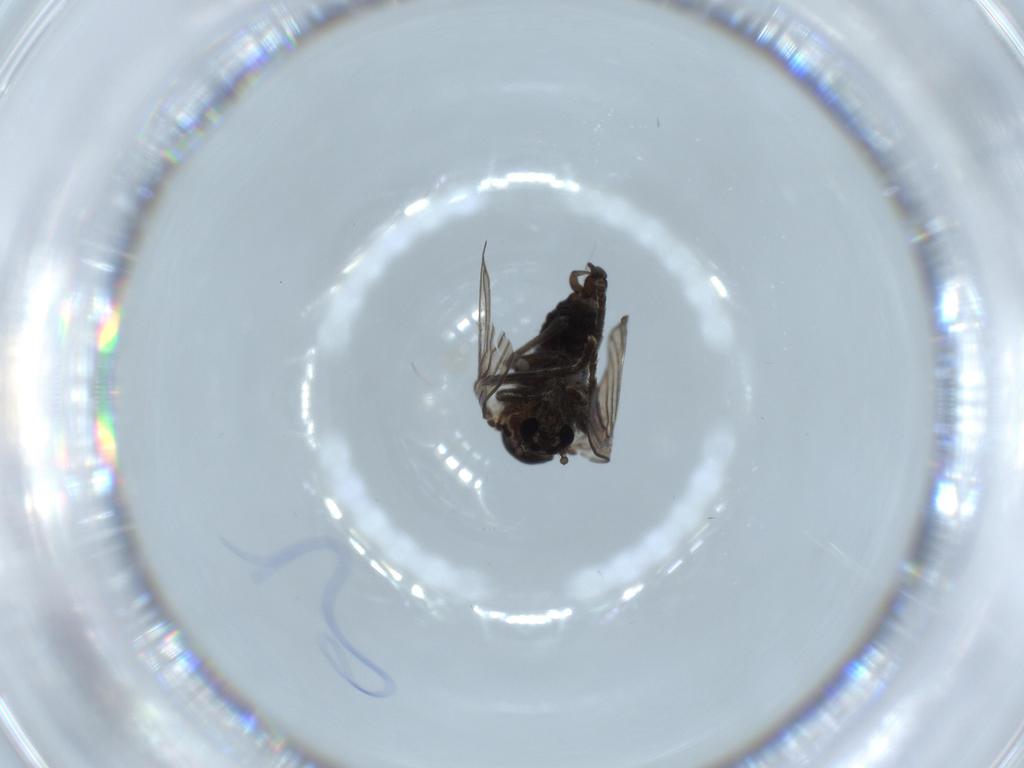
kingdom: Animalia
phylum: Arthropoda
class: Insecta
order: Diptera
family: Psychodidae
